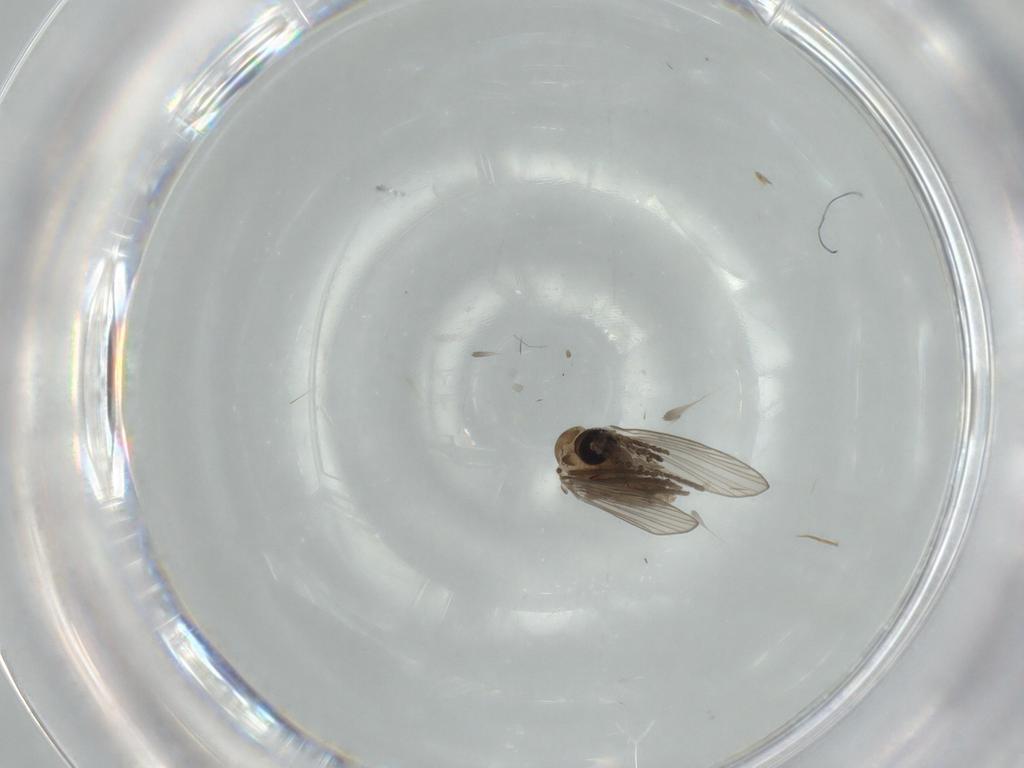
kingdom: Animalia
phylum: Arthropoda
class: Insecta
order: Diptera
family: Psychodidae
